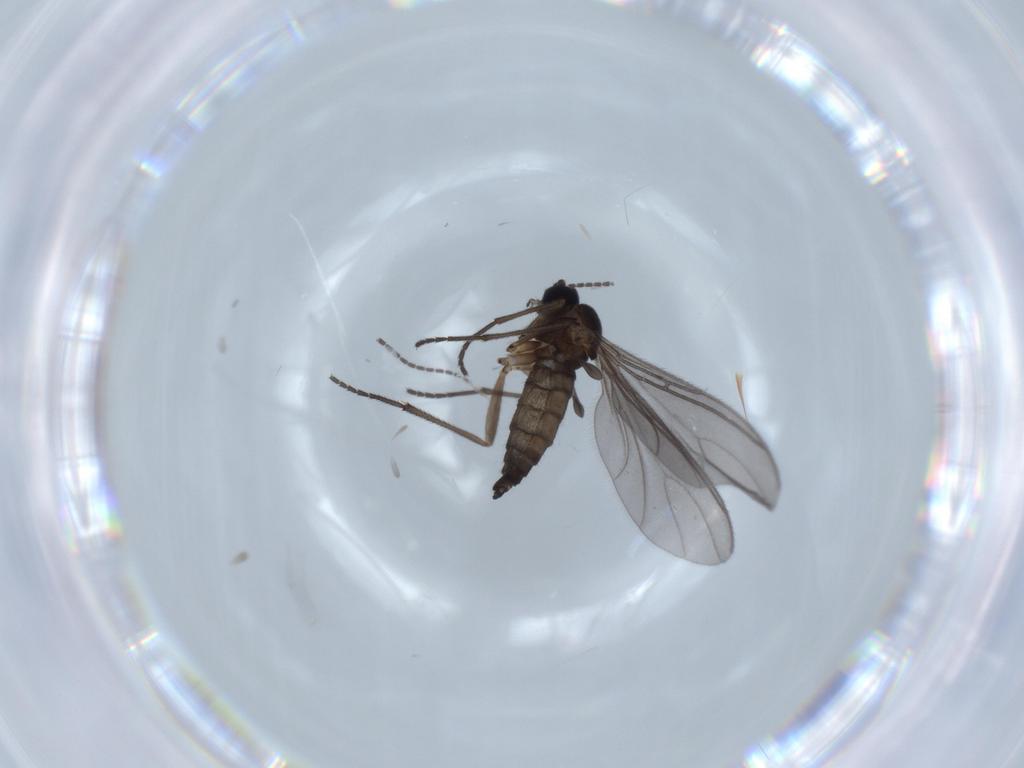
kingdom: Animalia
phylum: Arthropoda
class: Insecta
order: Diptera
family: Sciaridae
